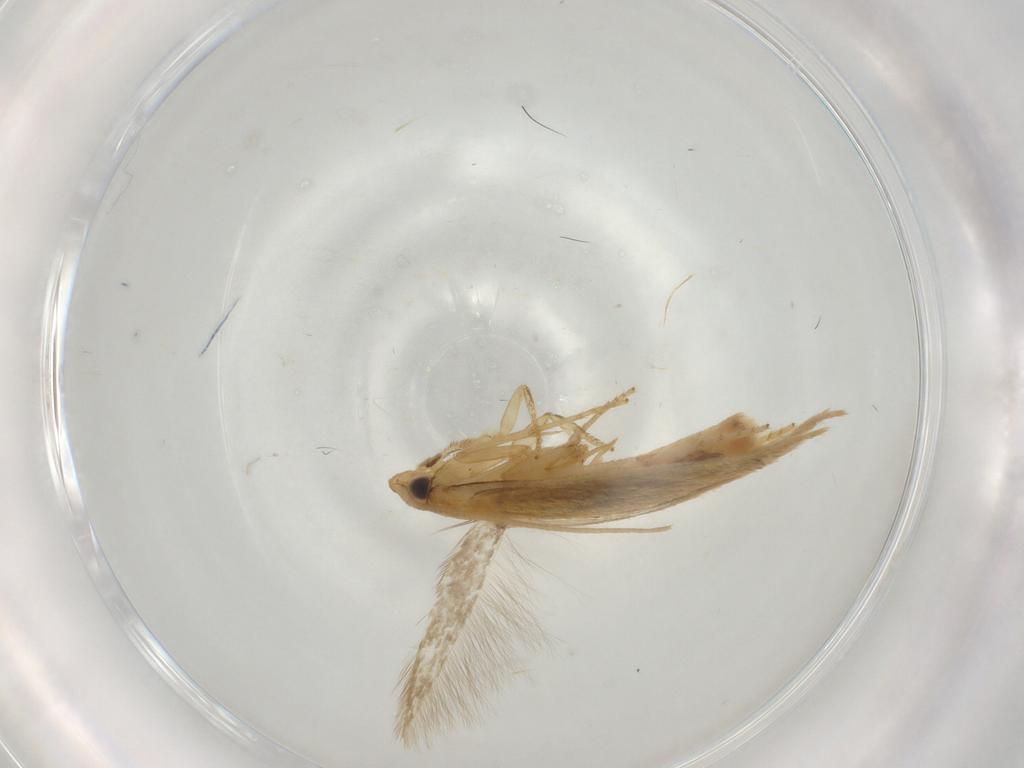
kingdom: Animalia
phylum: Arthropoda
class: Insecta
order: Lepidoptera
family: Tineidae
